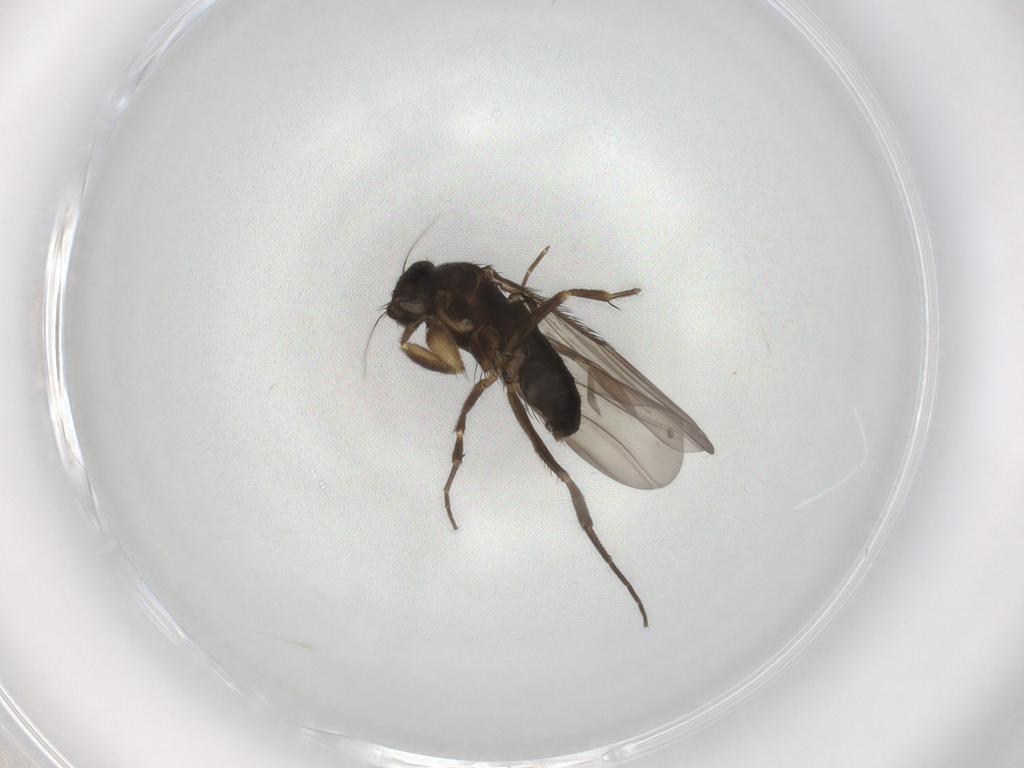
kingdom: Animalia
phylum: Arthropoda
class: Insecta
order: Diptera
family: Phoridae
